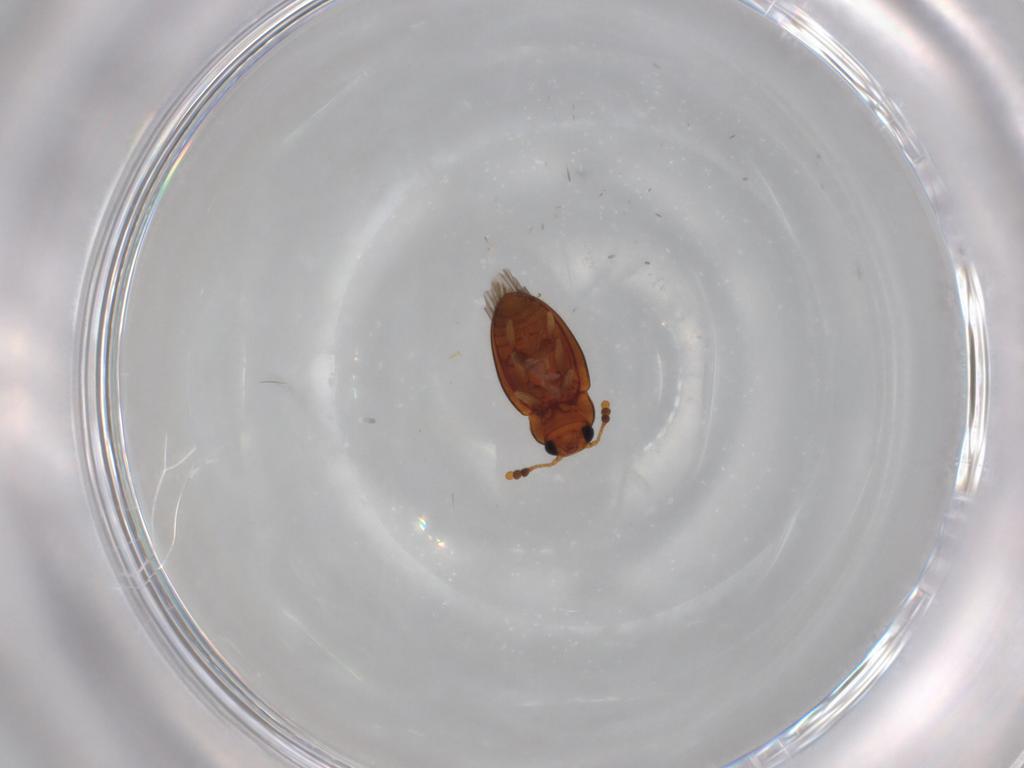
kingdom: Animalia
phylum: Arthropoda
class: Insecta
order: Coleoptera
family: Erotylidae
